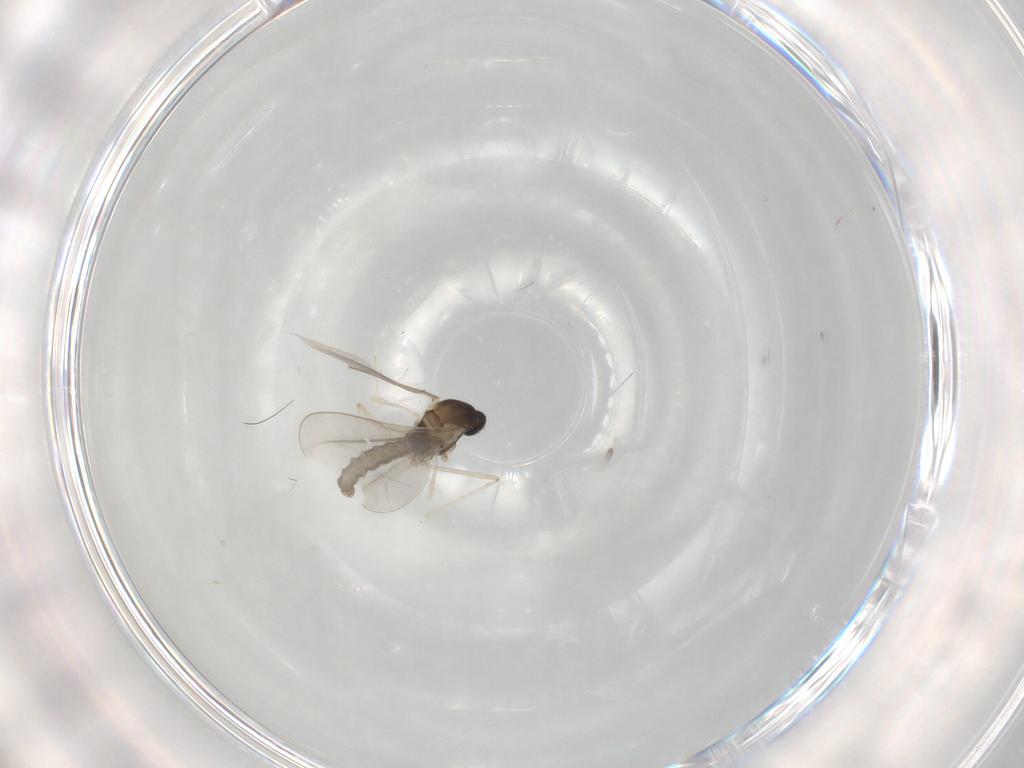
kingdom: Animalia
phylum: Arthropoda
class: Insecta
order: Diptera
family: Cecidomyiidae
